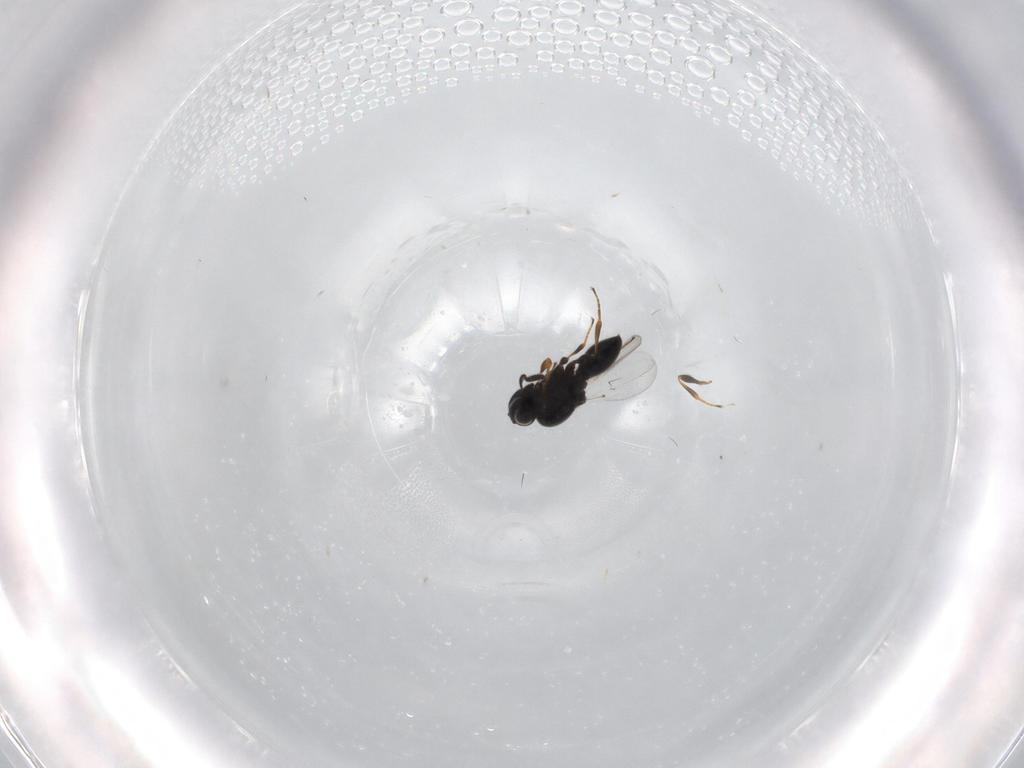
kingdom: Animalia
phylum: Arthropoda
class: Insecta
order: Hymenoptera
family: Platygastridae
